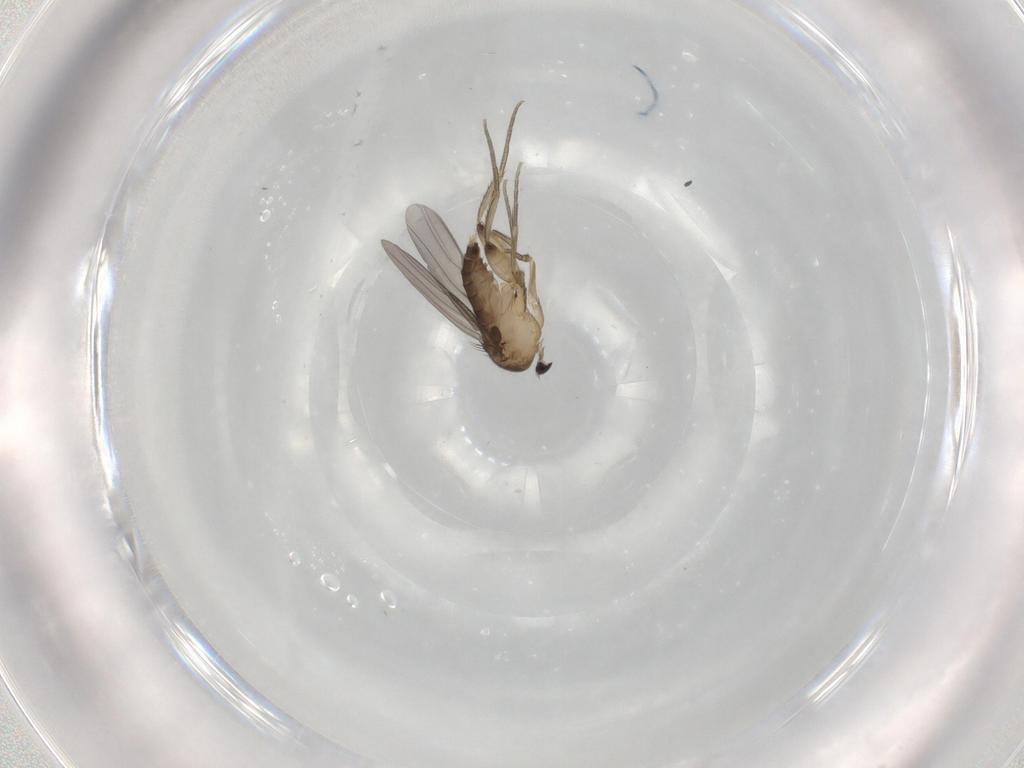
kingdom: Animalia
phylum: Arthropoda
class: Insecta
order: Diptera
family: Phoridae
